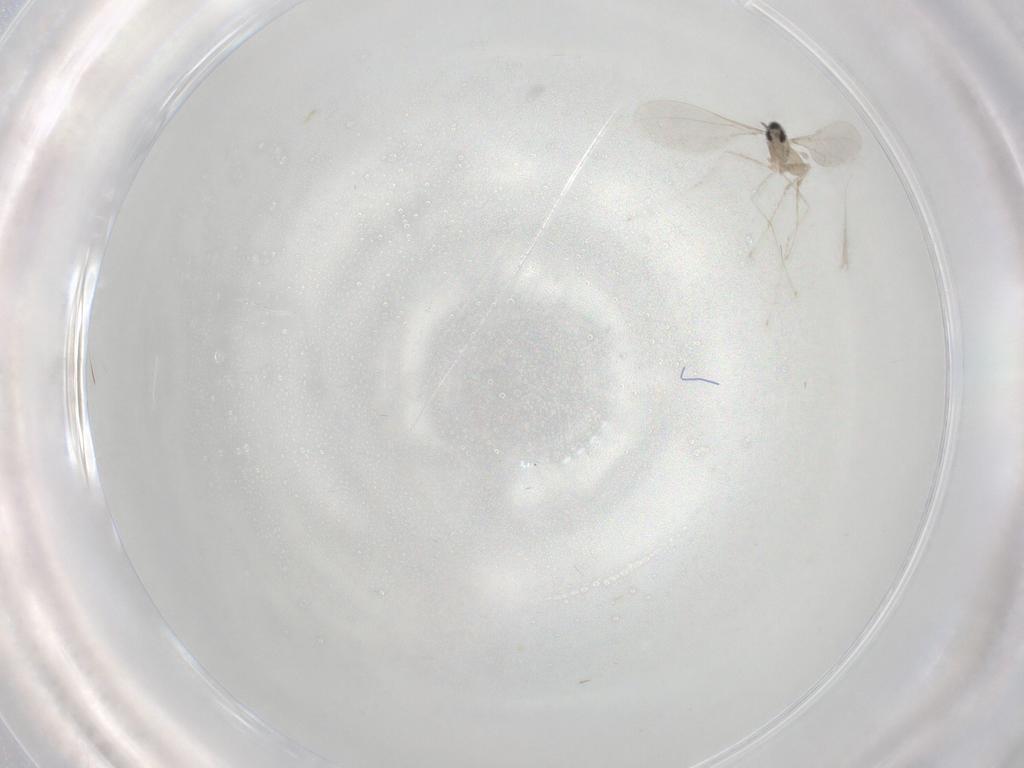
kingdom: Animalia
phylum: Arthropoda
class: Insecta
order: Diptera
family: Cecidomyiidae
